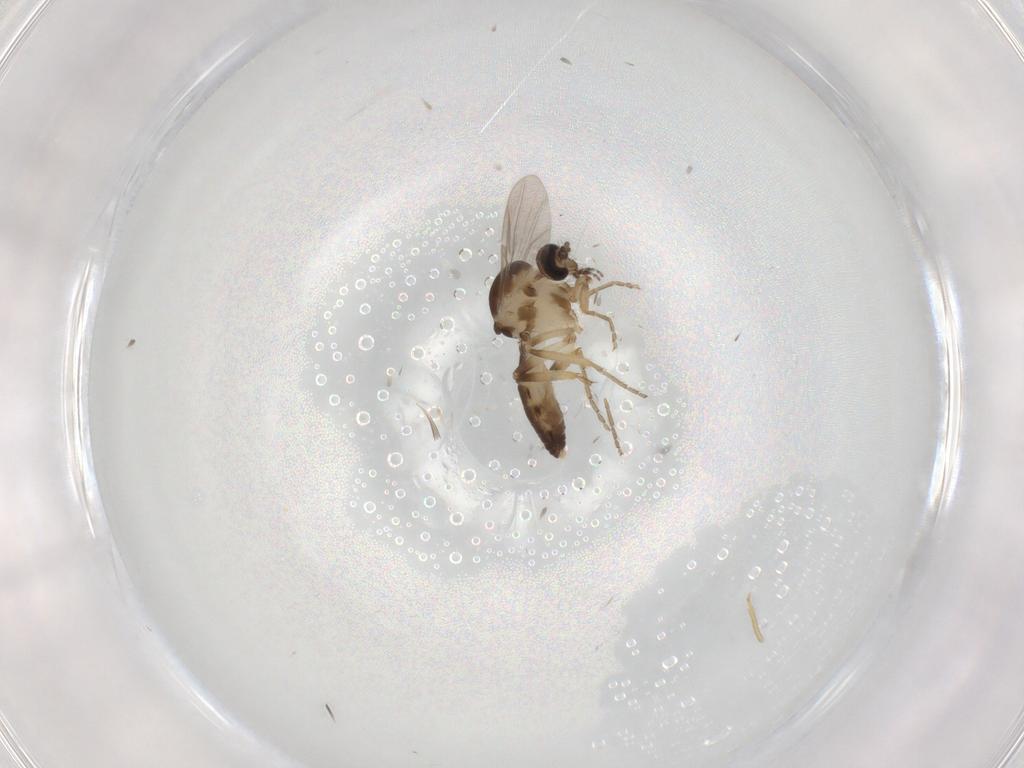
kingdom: Animalia
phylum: Arthropoda
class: Insecta
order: Diptera
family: Ceratopogonidae
